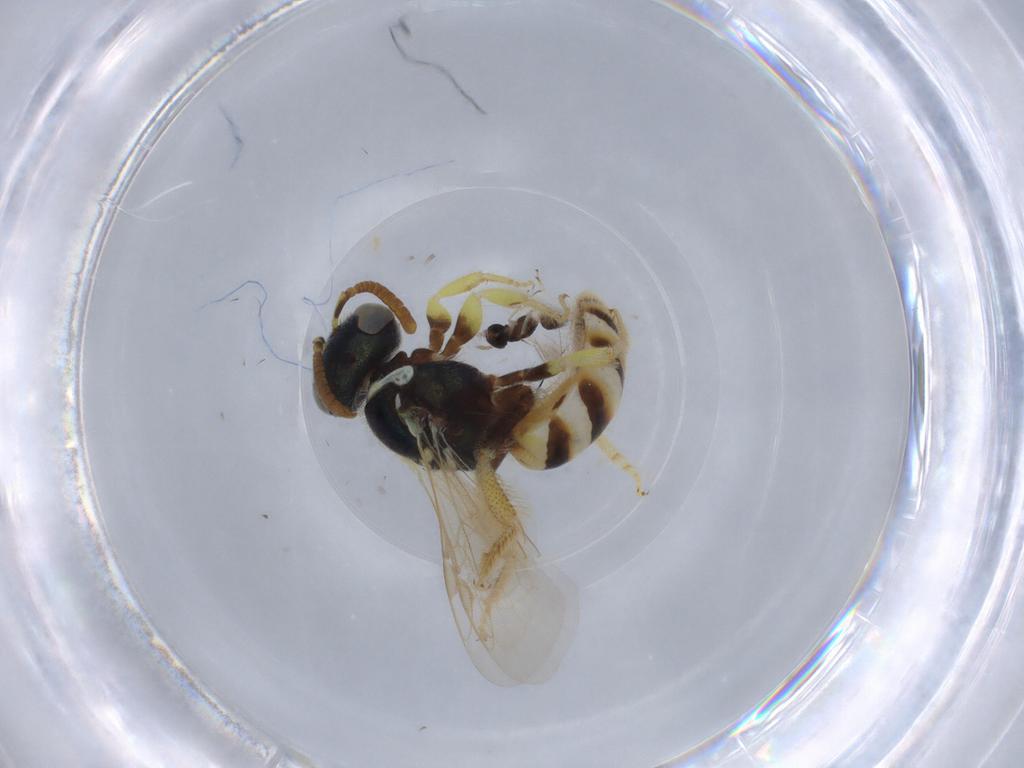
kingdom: Animalia
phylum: Arthropoda
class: Insecta
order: Hymenoptera
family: Halictidae
